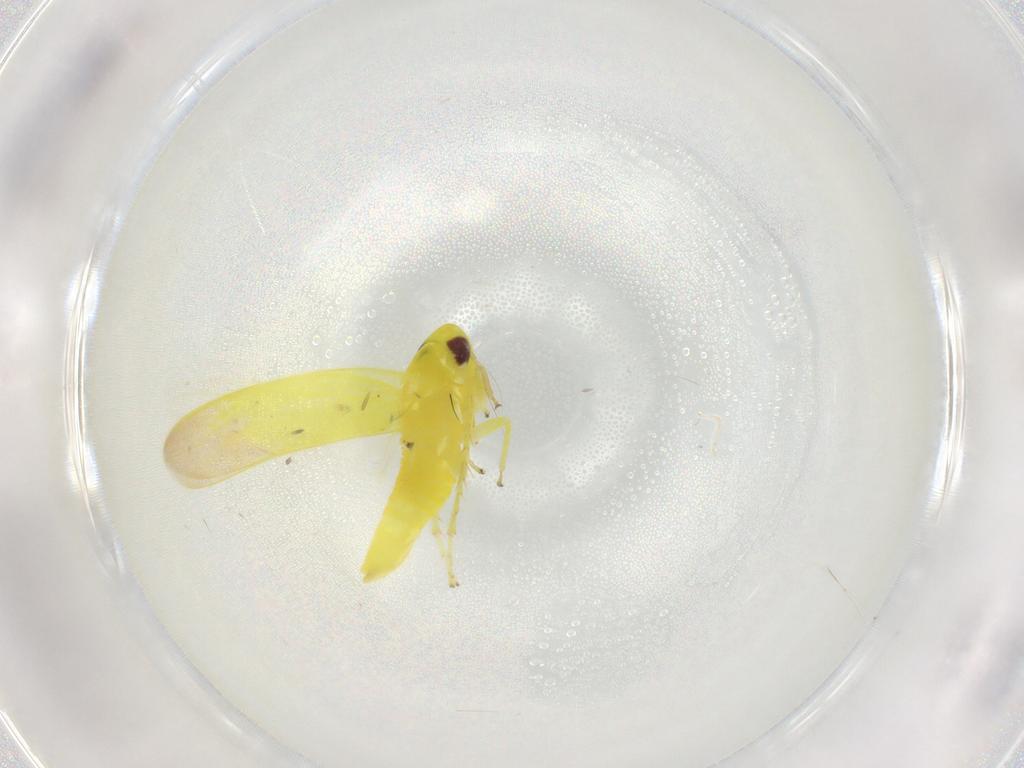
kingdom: Animalia
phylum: Arthropoda
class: Insecta
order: Hemiptera
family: Cicadellidae
